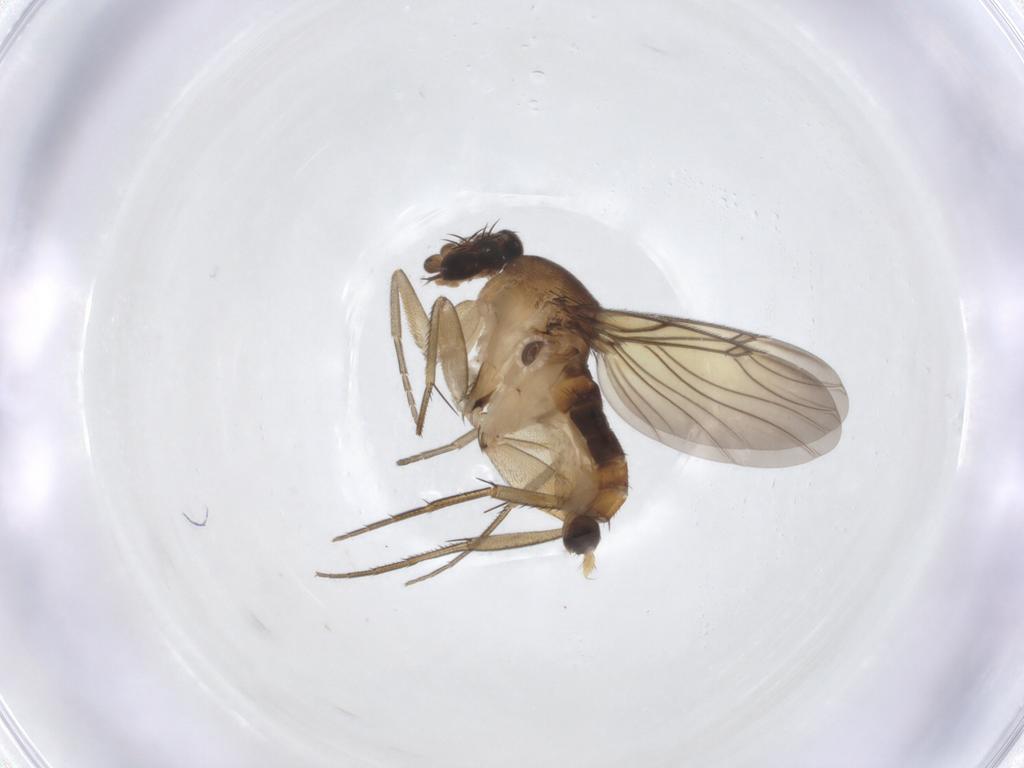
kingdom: Animalia
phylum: Arthropoda
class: Insecta
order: Diptera
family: Phoridae
